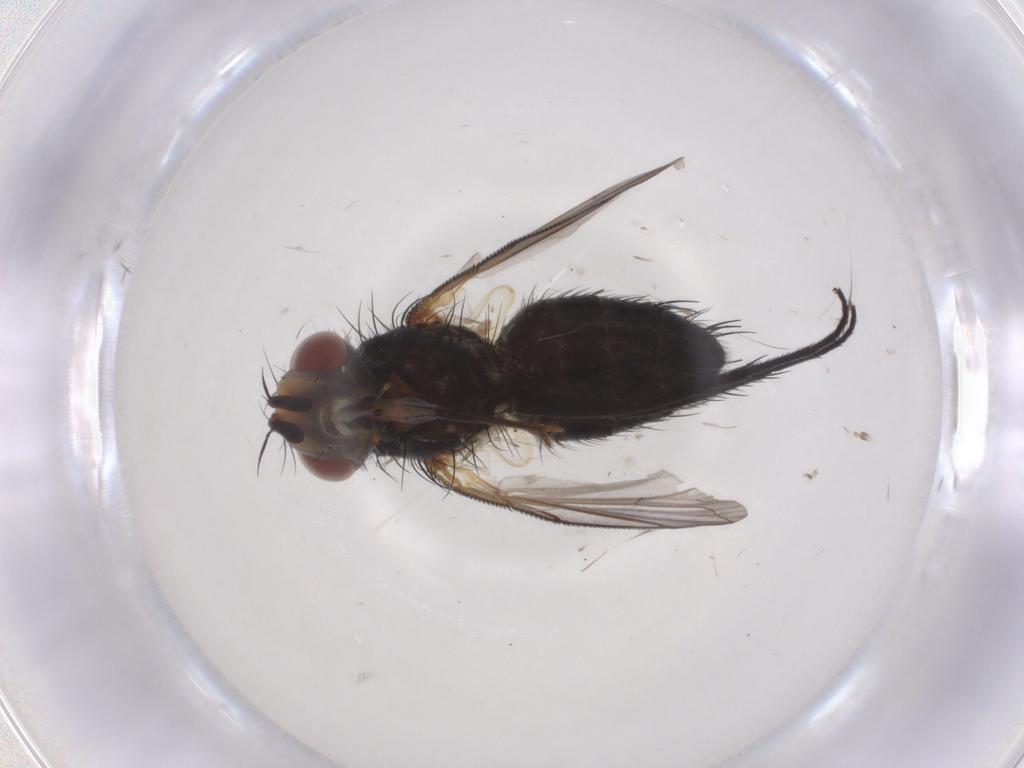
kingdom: Animalia
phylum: Arthropoda
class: Insecta
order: Diptera
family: Tachinidae
